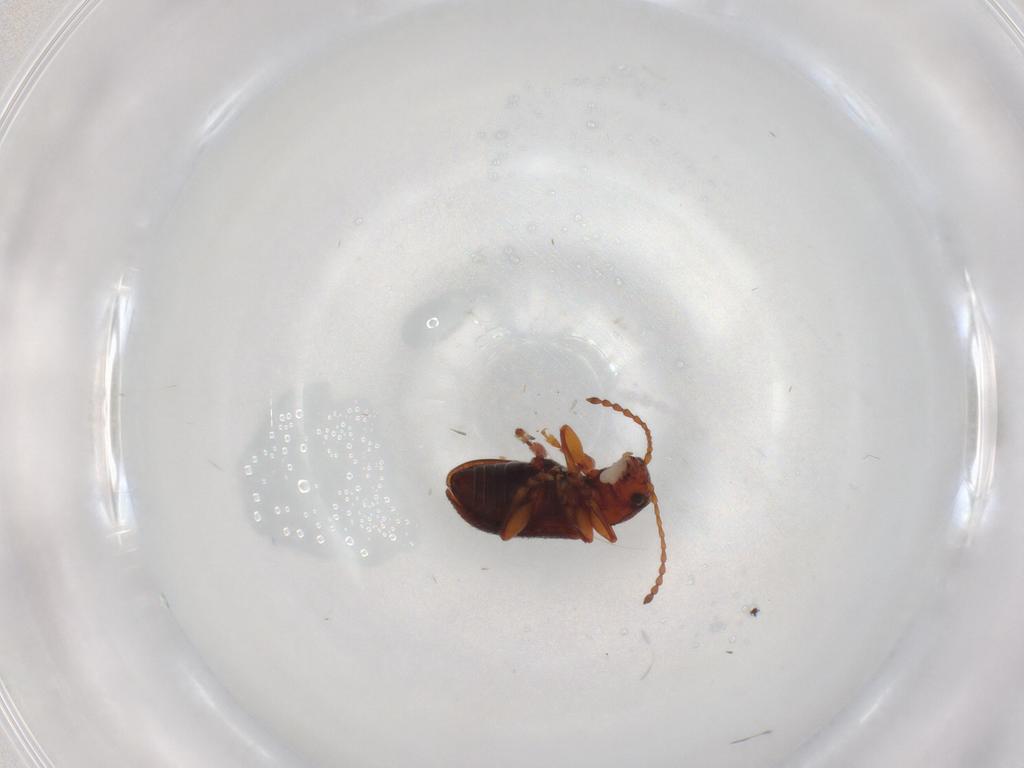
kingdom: Animalia
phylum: Arthropoda
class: Insecta
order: Coleoptera
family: Chrysomelidae
